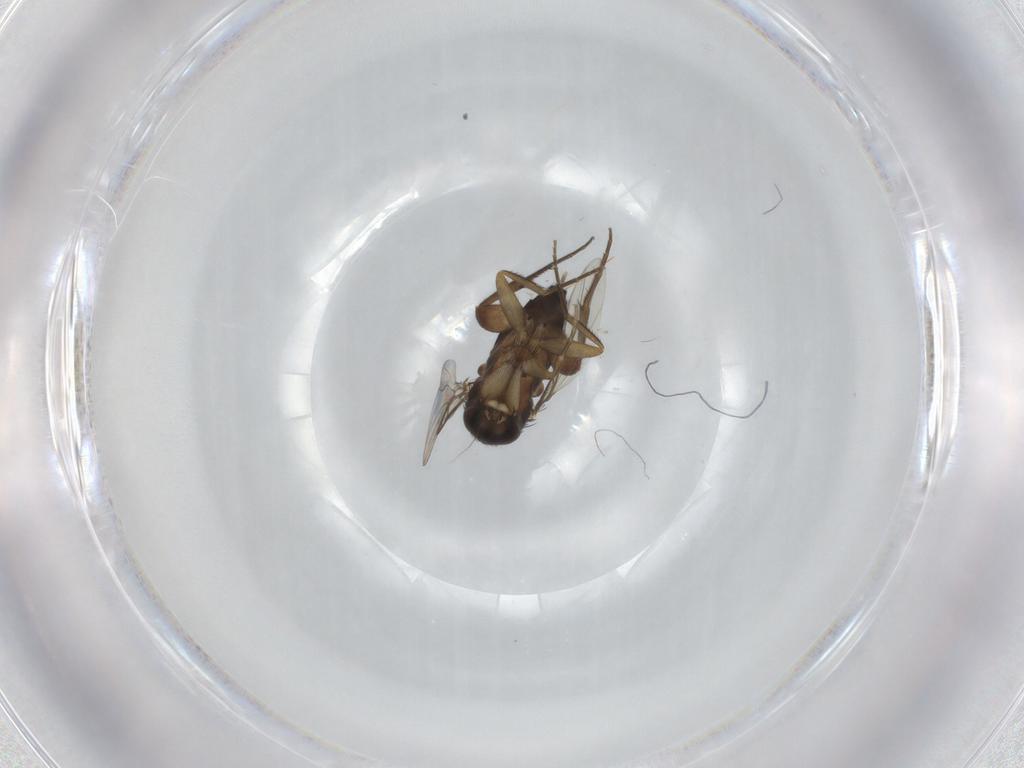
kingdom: Animalia
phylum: Arthropoda
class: Insecta
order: Diptera
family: Phoridae
